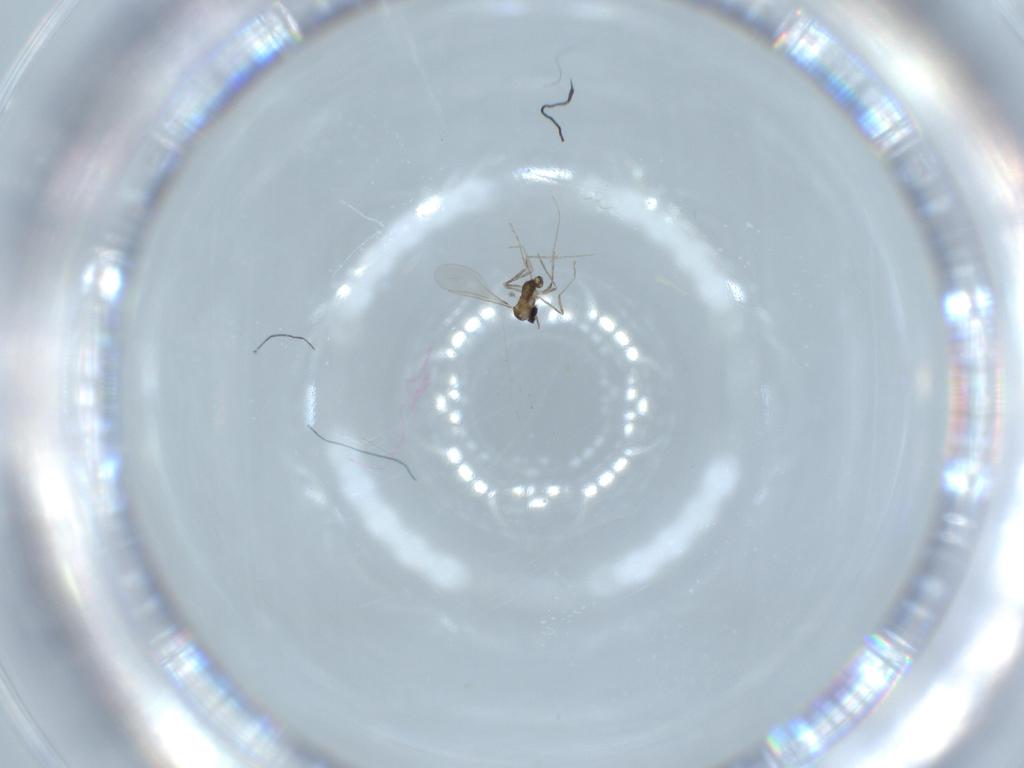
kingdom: Animalia
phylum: Arthropoda
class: Insecta
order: Diptera
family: Cecidomyiidae
